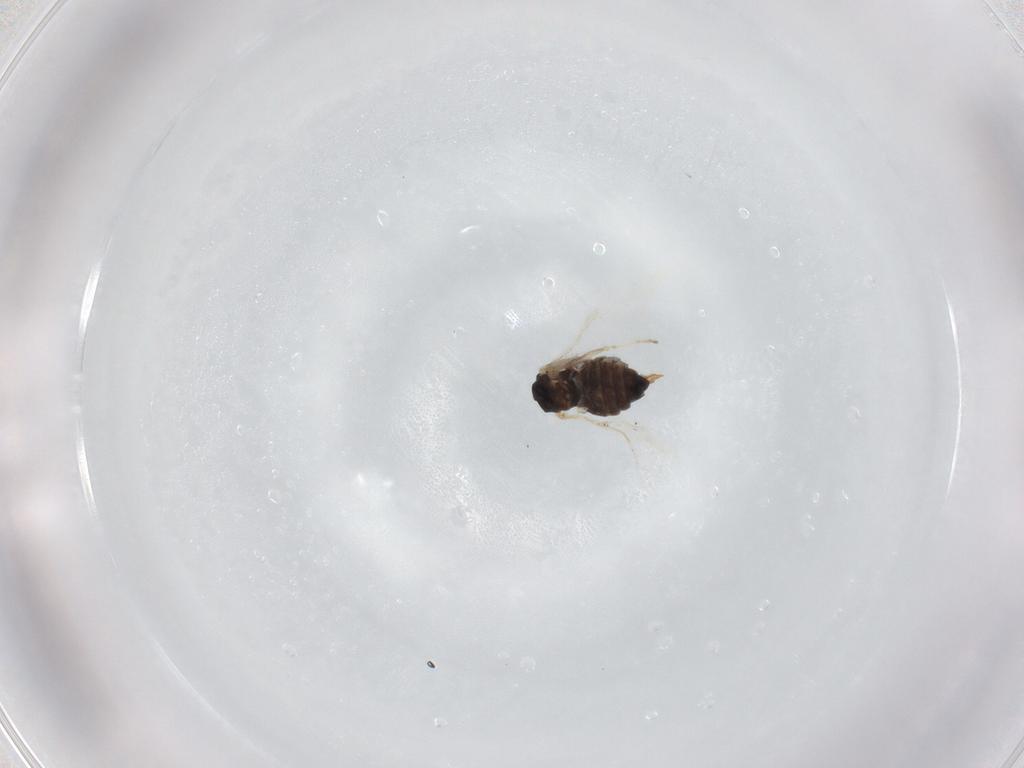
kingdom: Animalia
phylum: Arthropoda
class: Insecta
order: Diptera
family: Cecidomyiidae
